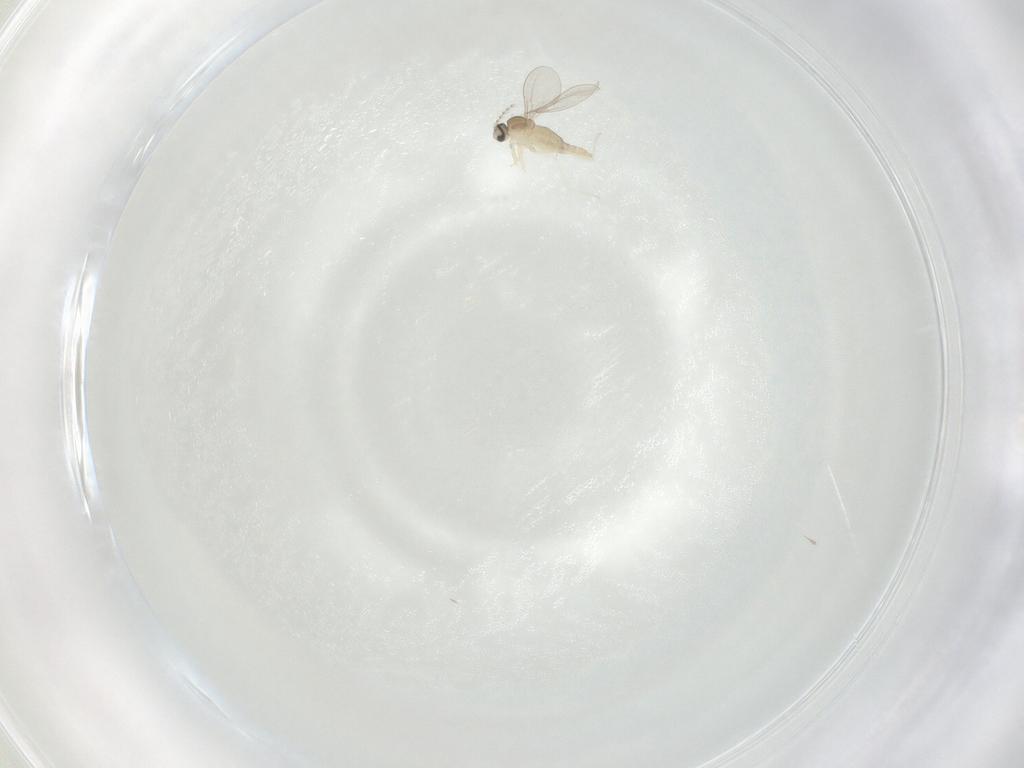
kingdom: Animalia
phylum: Arthropoda
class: Insecta
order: Diptera
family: Cecidomyiidae
